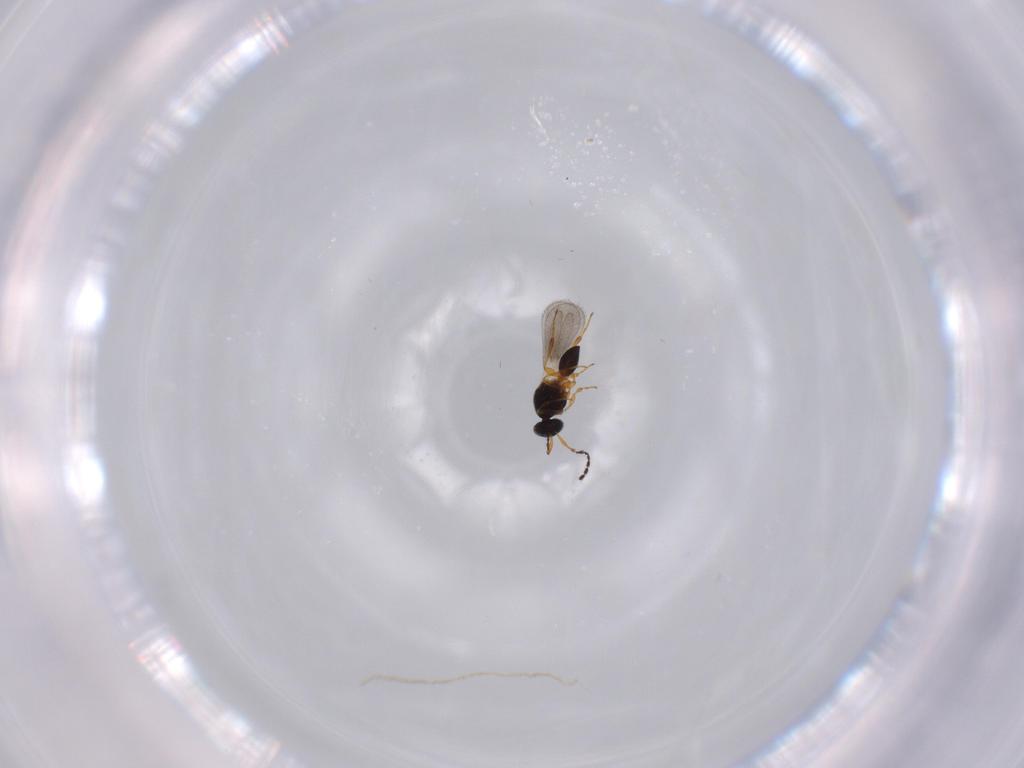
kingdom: Animalia
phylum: Arthropoda
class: Insecta
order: Hymenoptera
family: Platygastridae
